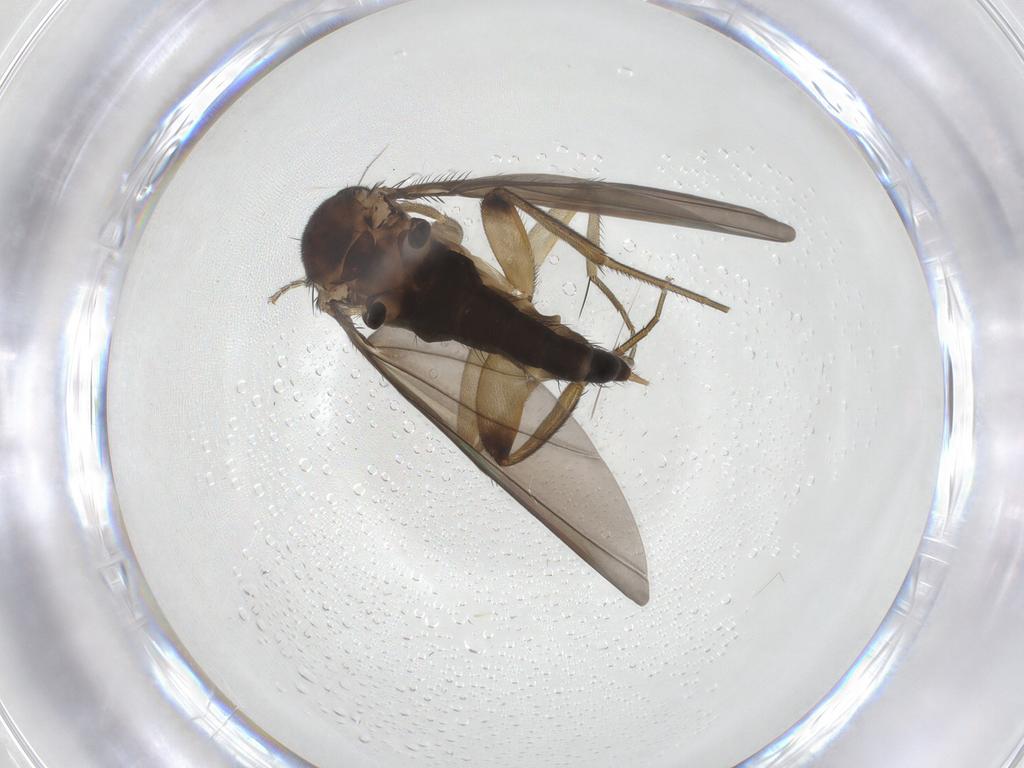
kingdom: Animalia
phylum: Arthropoda
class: Insecta
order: Diptera
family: Phoridae
